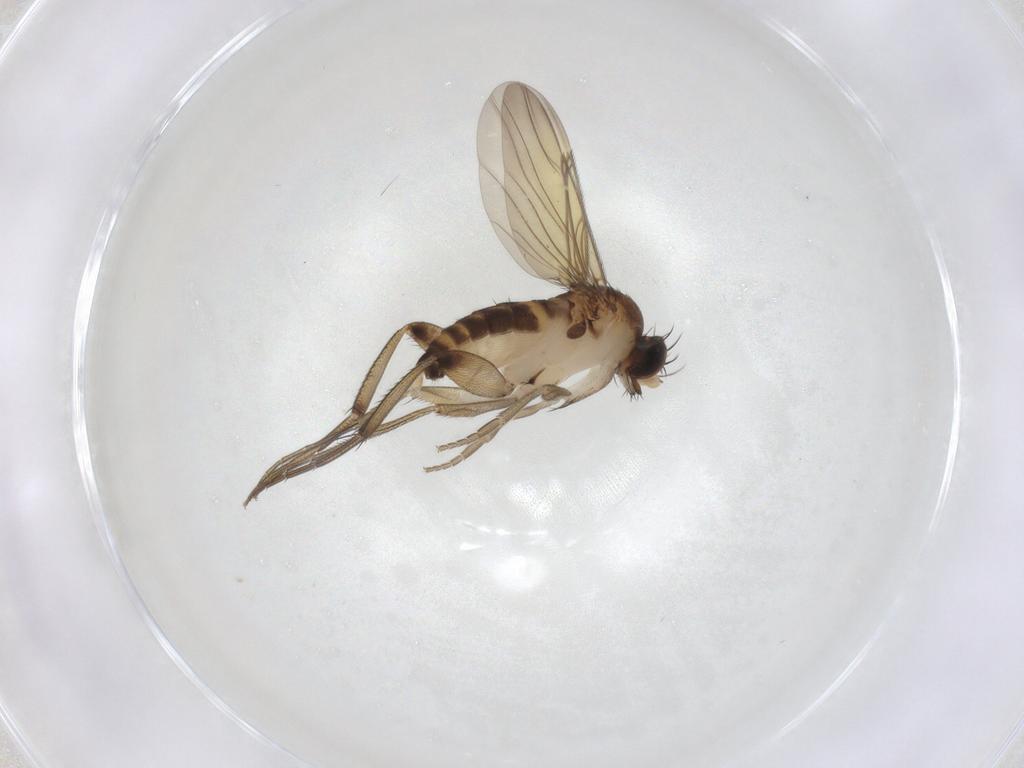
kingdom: Animalia
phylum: Arthropoda
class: Insecta
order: Diptera
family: Phoridae
